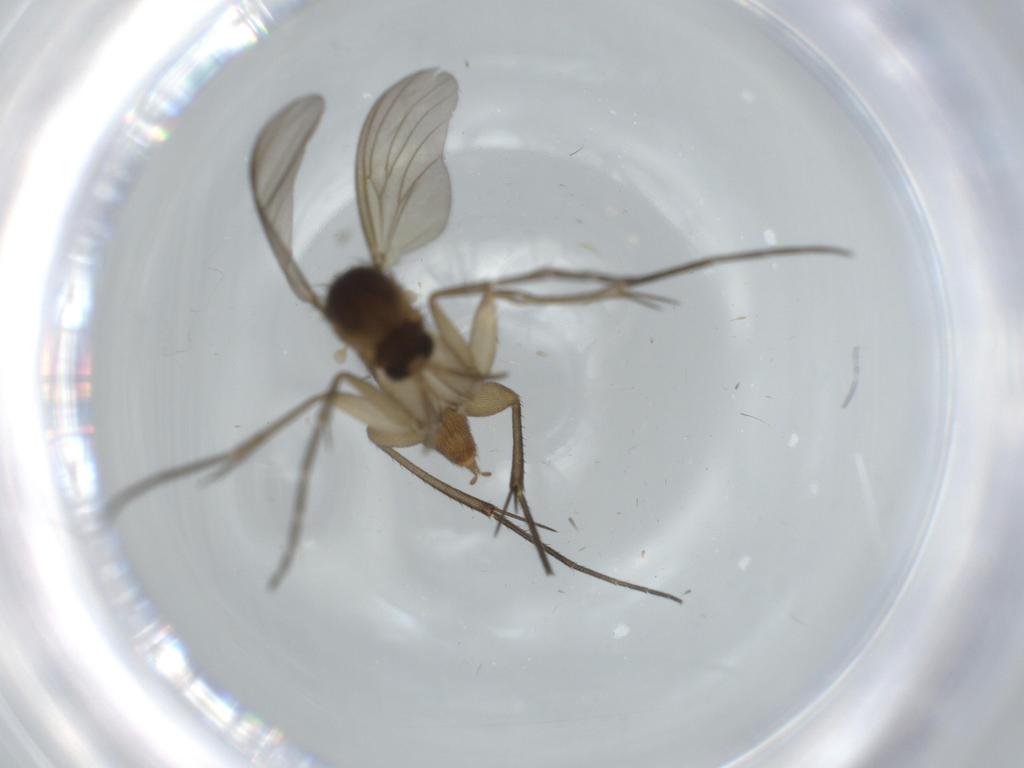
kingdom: Animalia
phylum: Arthropoda
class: Insecta
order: Diptera
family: Mycetophilidae
